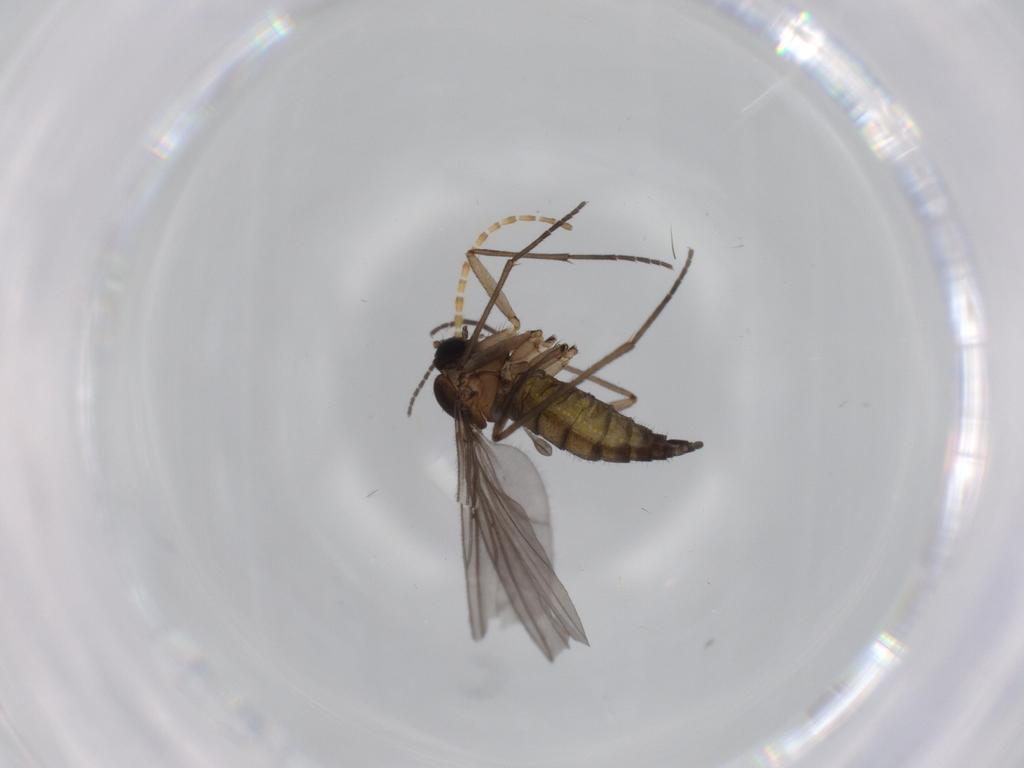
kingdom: Animalia
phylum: Arthropoda
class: Insecta
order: Diptera
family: Sciaridae
